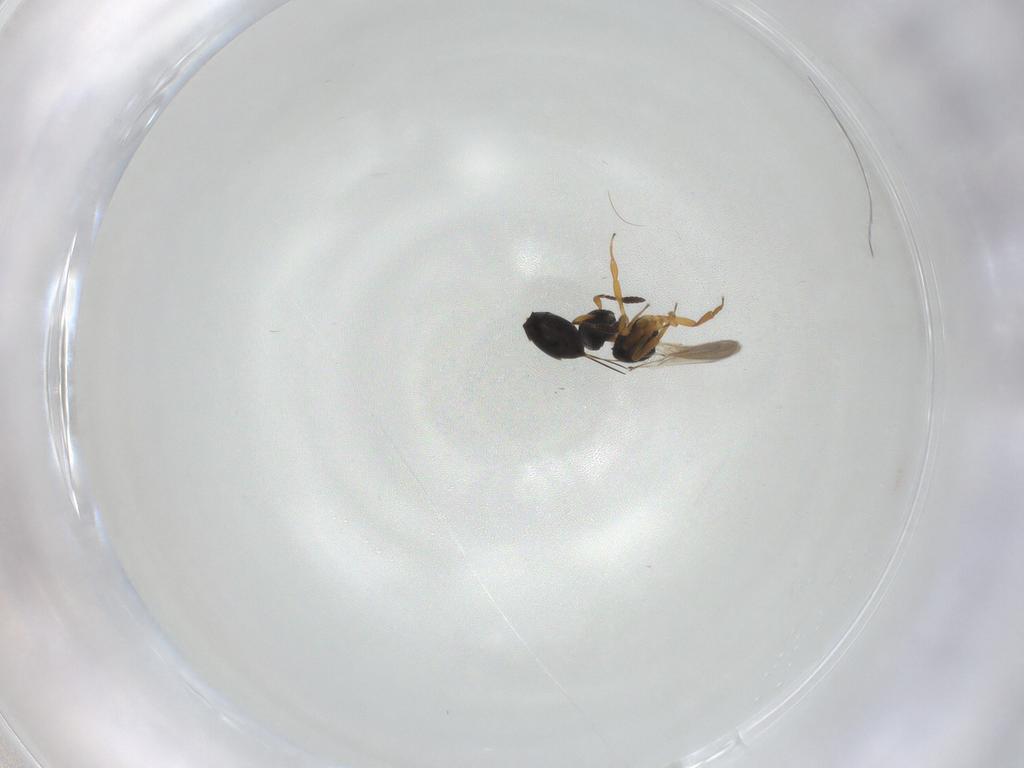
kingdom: Animalia
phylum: Arthropoda
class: Insecta
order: Hymenoptera
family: Scelionidae
